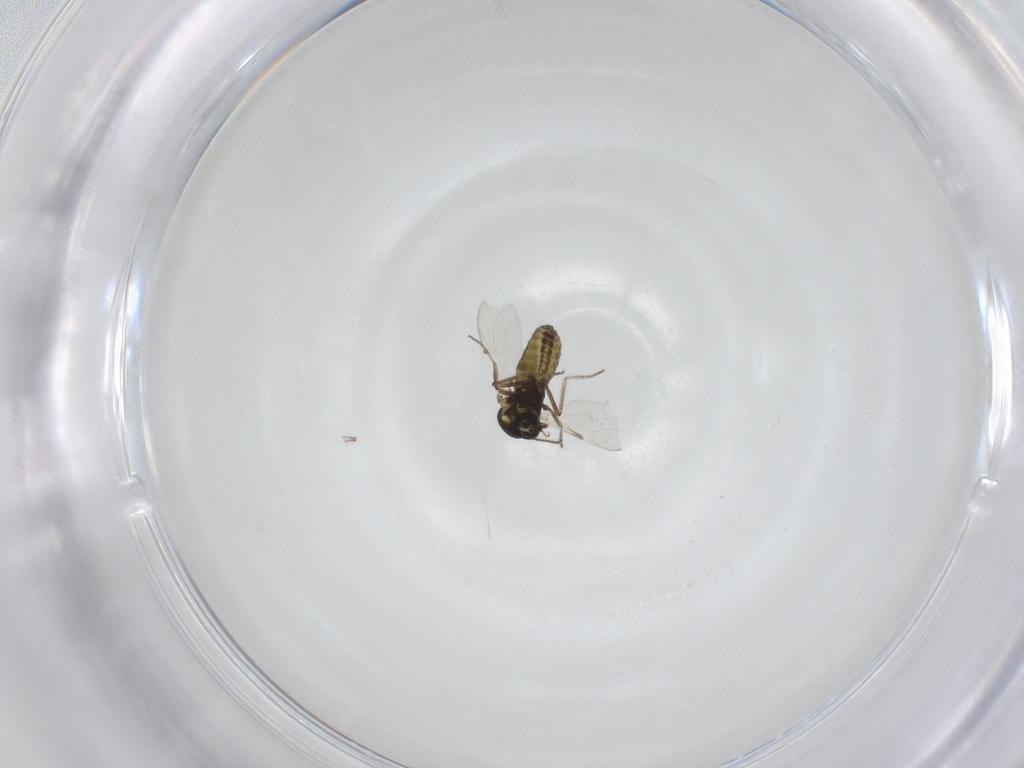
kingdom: Animalia
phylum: Arthropoda
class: Insecta
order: Diptera
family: Ceratopogonidae
